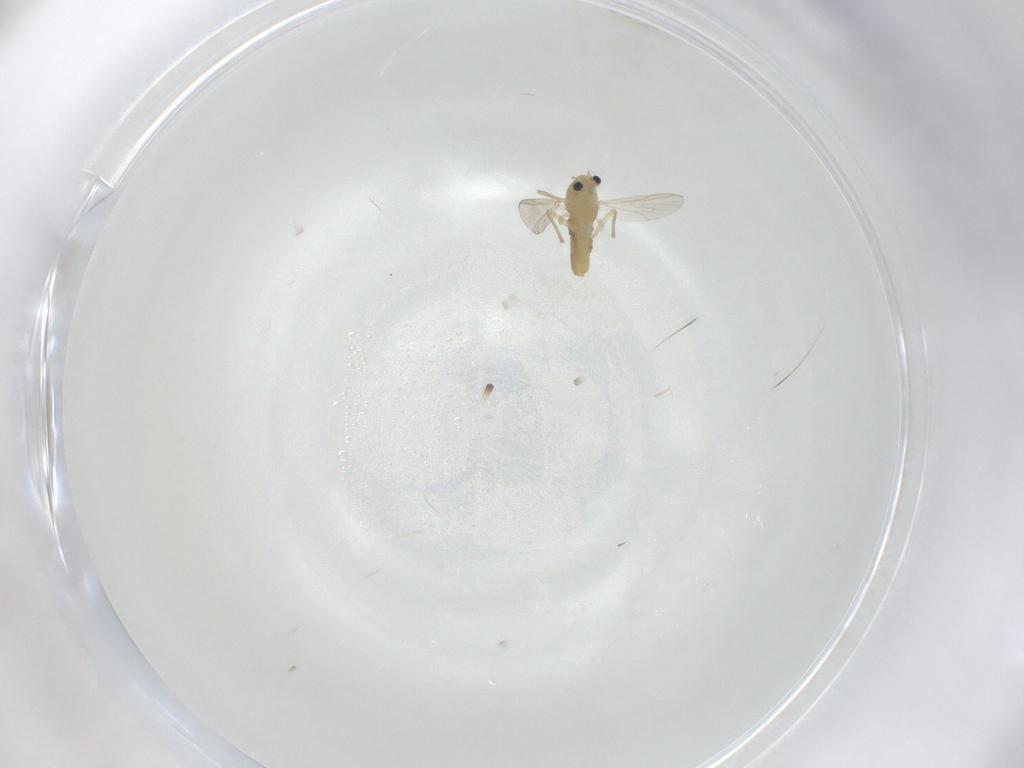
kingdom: Animalia
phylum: Arthropoda
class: Insecta
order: Diptera
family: Chironomidae
